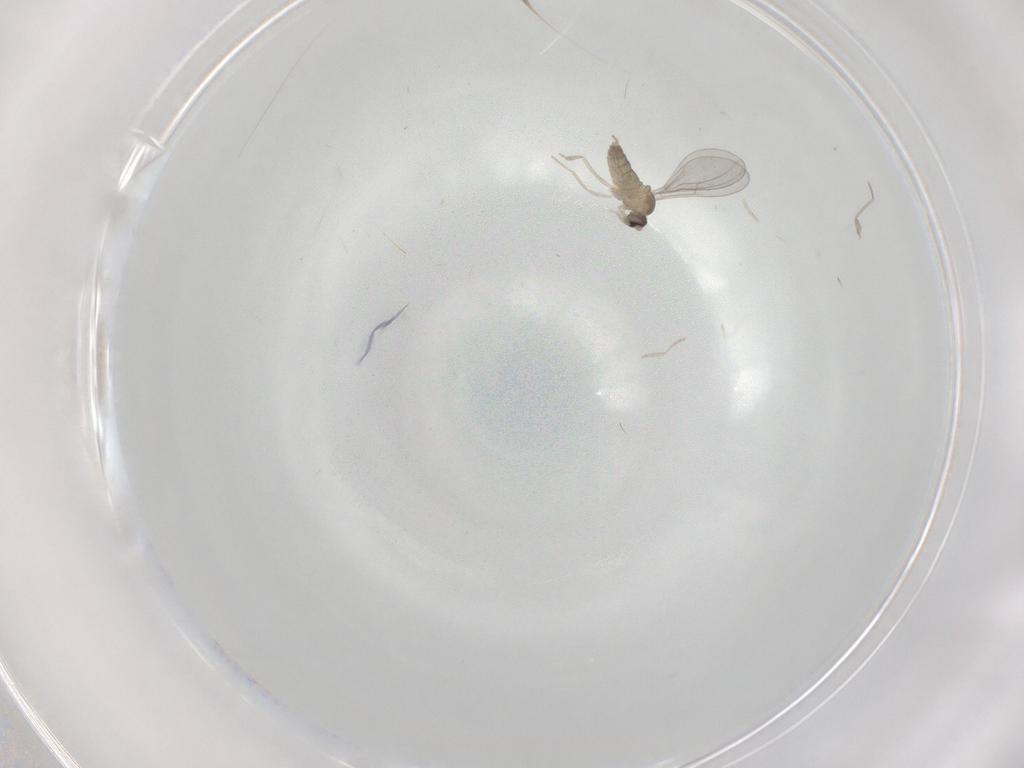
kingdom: Animalia
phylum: Arthropoda
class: Insecta
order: Diptera
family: Cecidomyiidae
